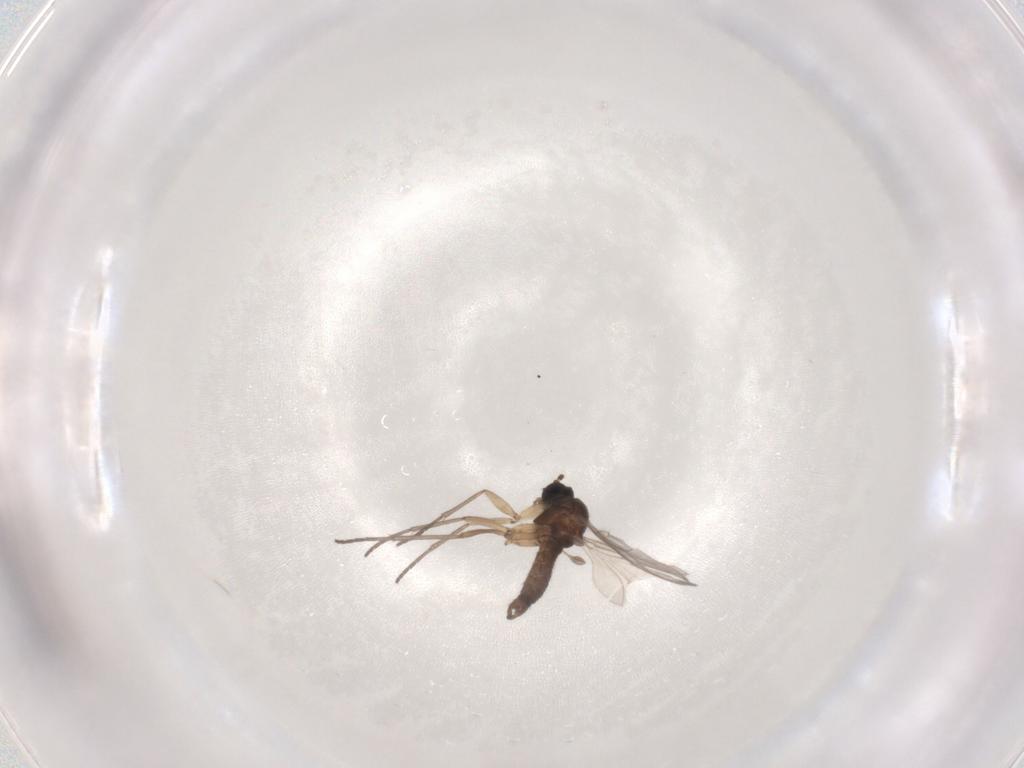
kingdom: Animalia
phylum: Arthropoda
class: Insecta
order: Diptera
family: Sciaridae
